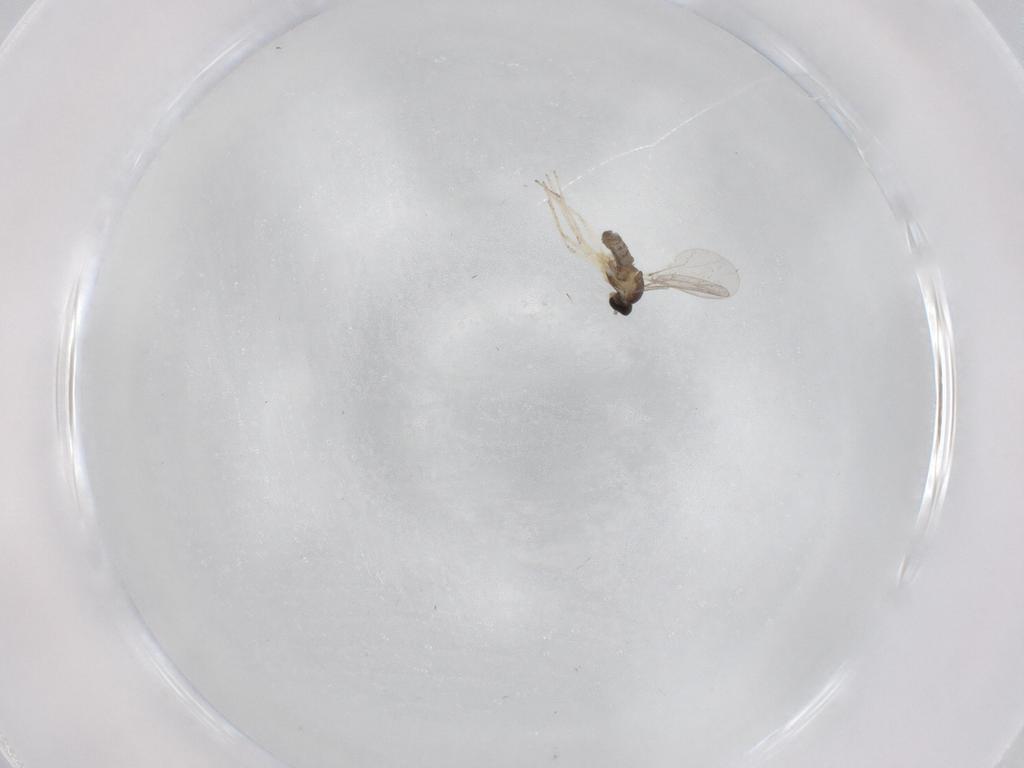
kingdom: Animalia
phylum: Arthropoda
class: Insecta
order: Diptera
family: Cecidomyiidae
